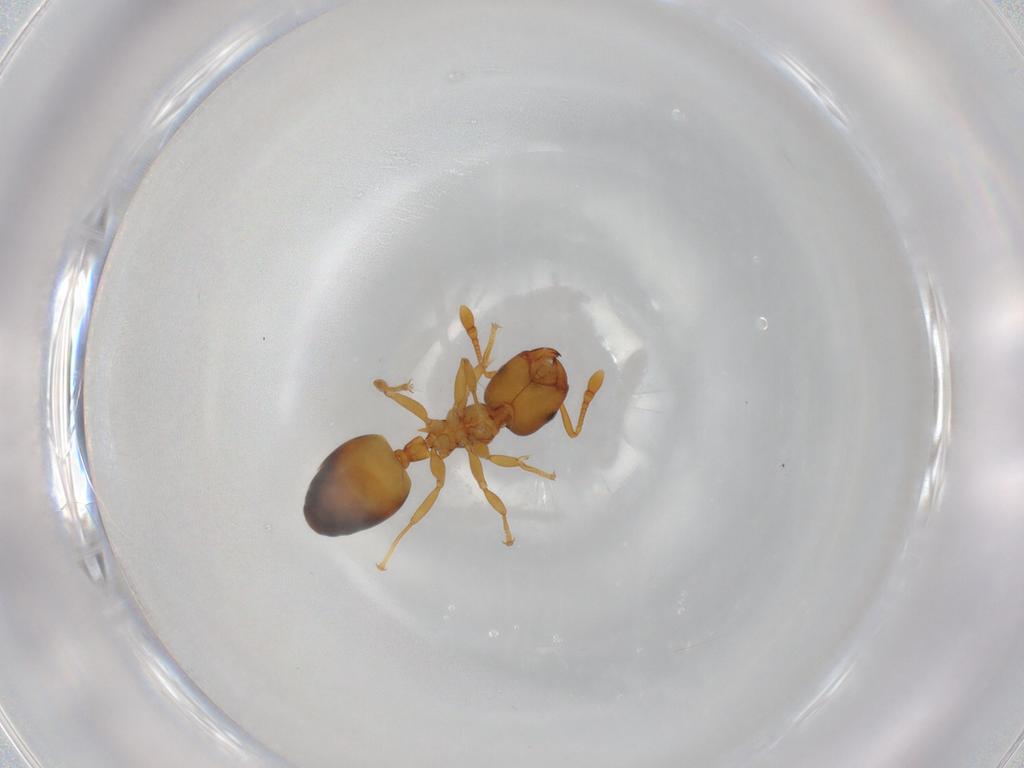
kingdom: Animalia
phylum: Arthropoda
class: Insecta
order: Hymenoptera
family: Formicidae
